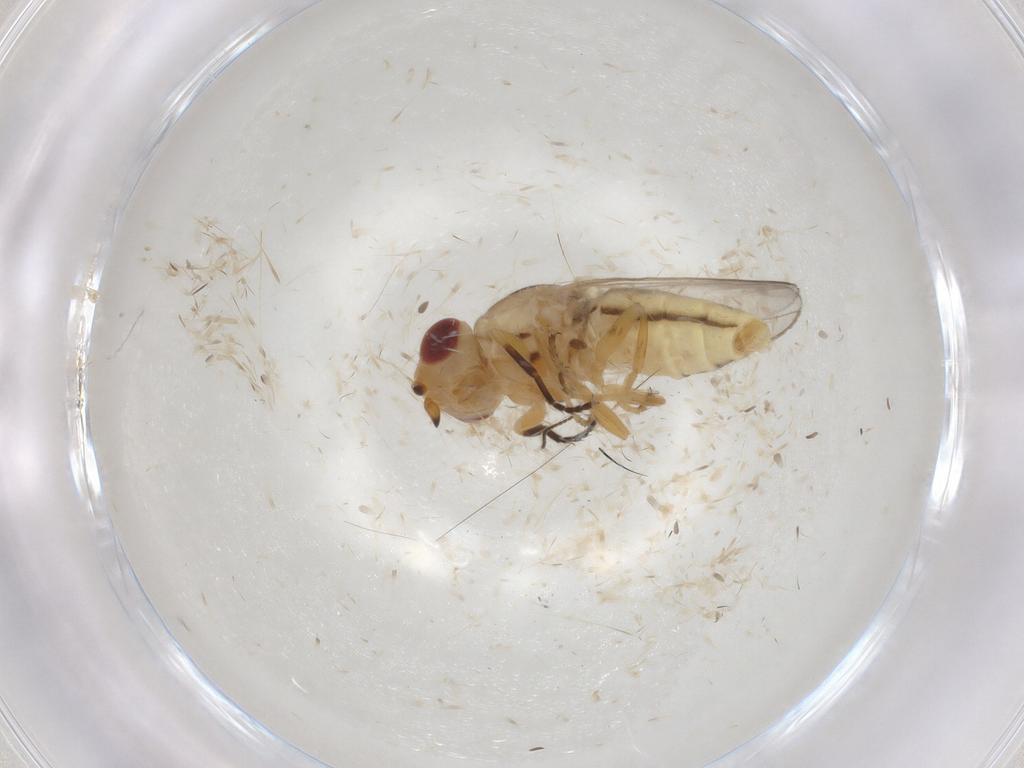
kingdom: Animalia
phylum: Arthropoda
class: Insecta
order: Diptera
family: Chloropidae
